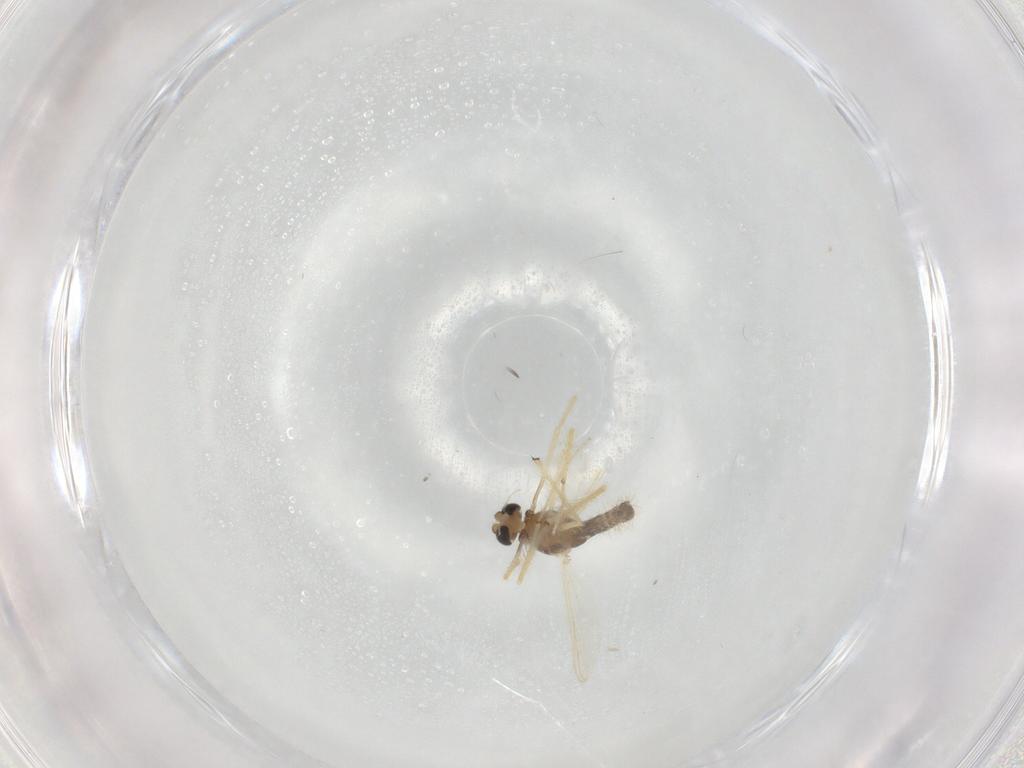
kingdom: Animalia
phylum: Arthropoda
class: Insecta
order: Diptera
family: Chironomidae
